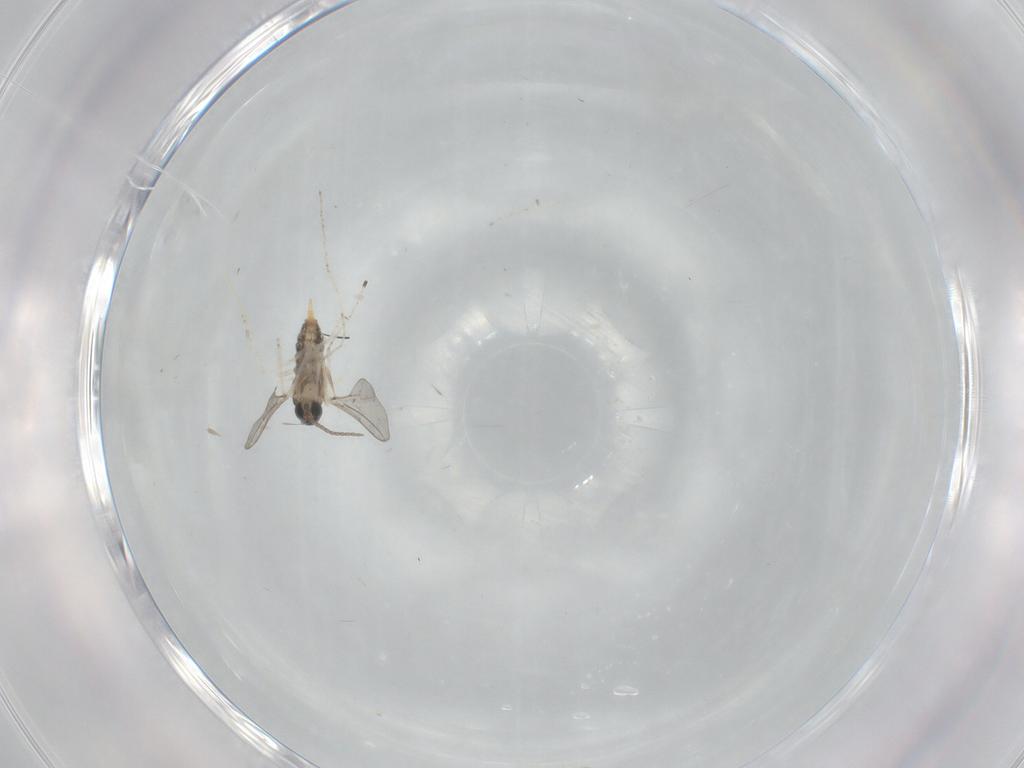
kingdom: Animalia
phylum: Arthropoda
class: Insecta
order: Diptera
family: Cecidomyiidae
